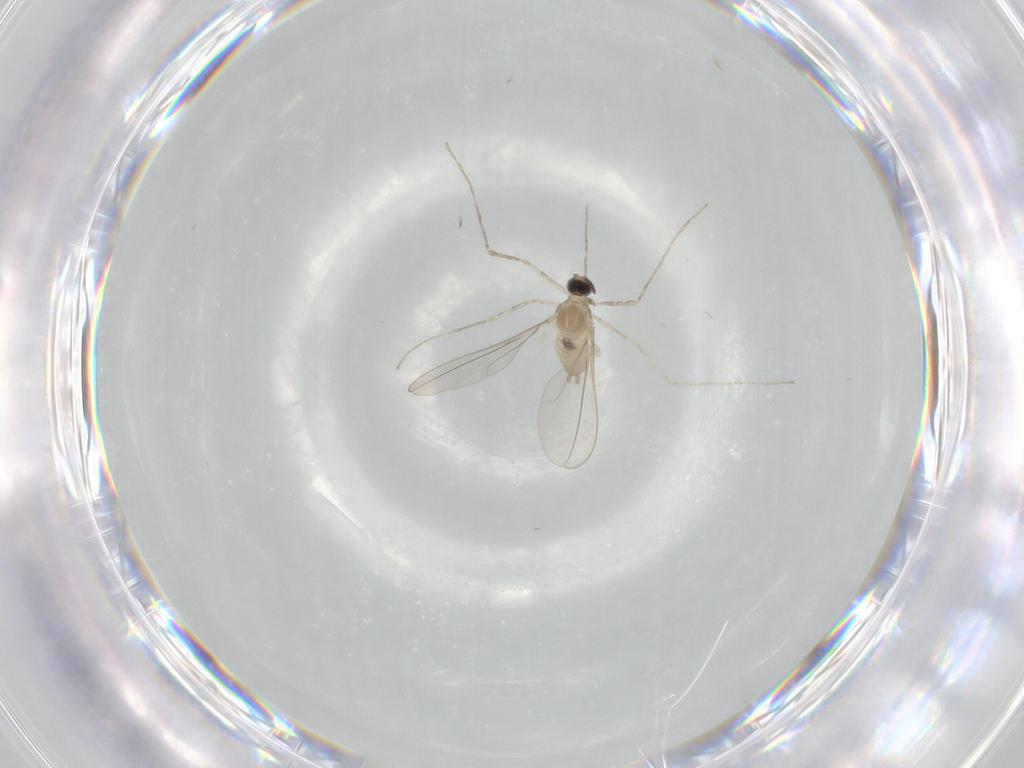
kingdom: Animalia
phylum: Arthropoda
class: Insecta
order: Diptera
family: Cecidomyiidae
